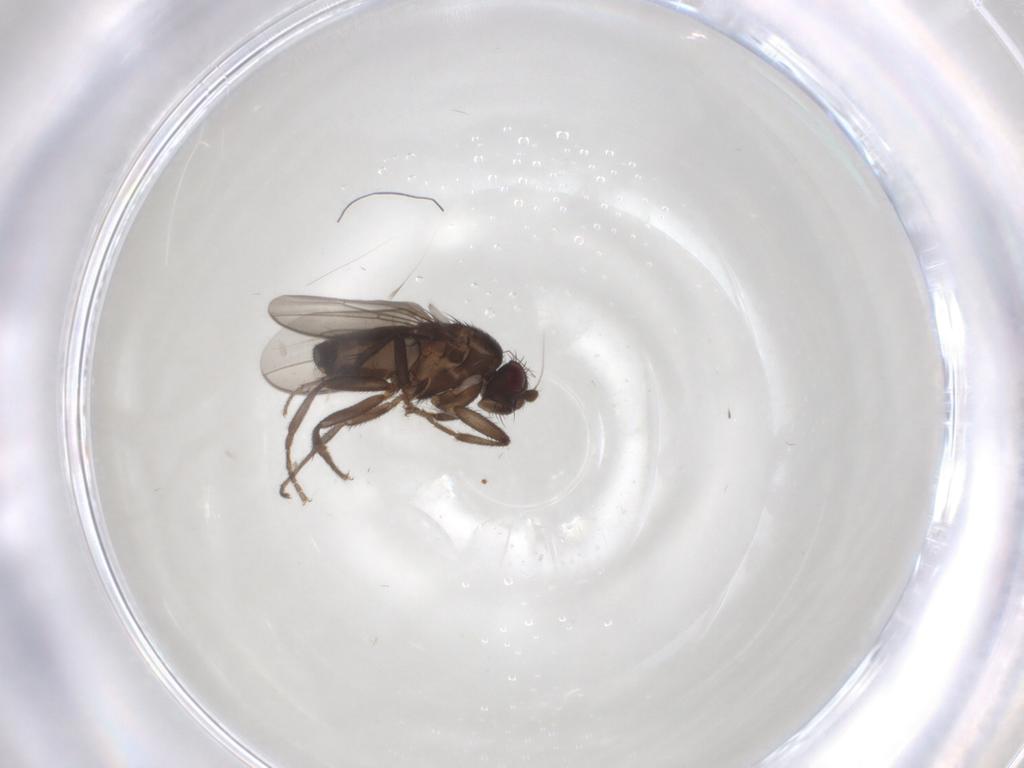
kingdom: Animalia
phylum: Arthropoda
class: Insecta
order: Diptera
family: Sphaeroceridae
